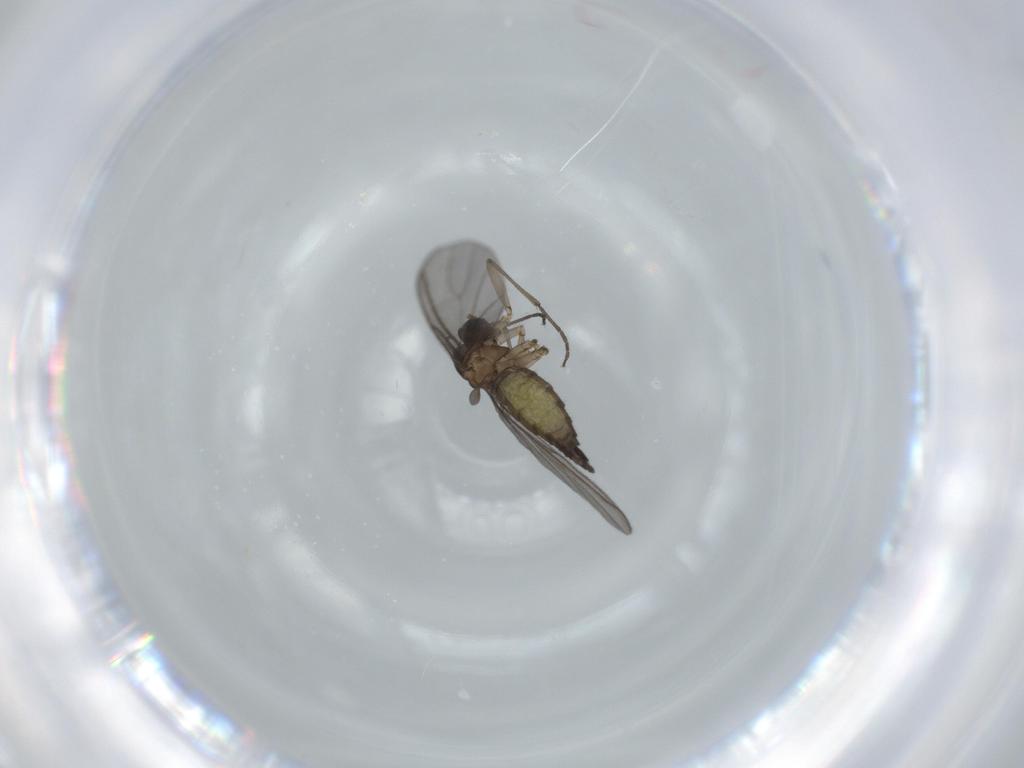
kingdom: Animalia
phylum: Arthropoda
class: Insecta
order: Diptera
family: Sciaridae
